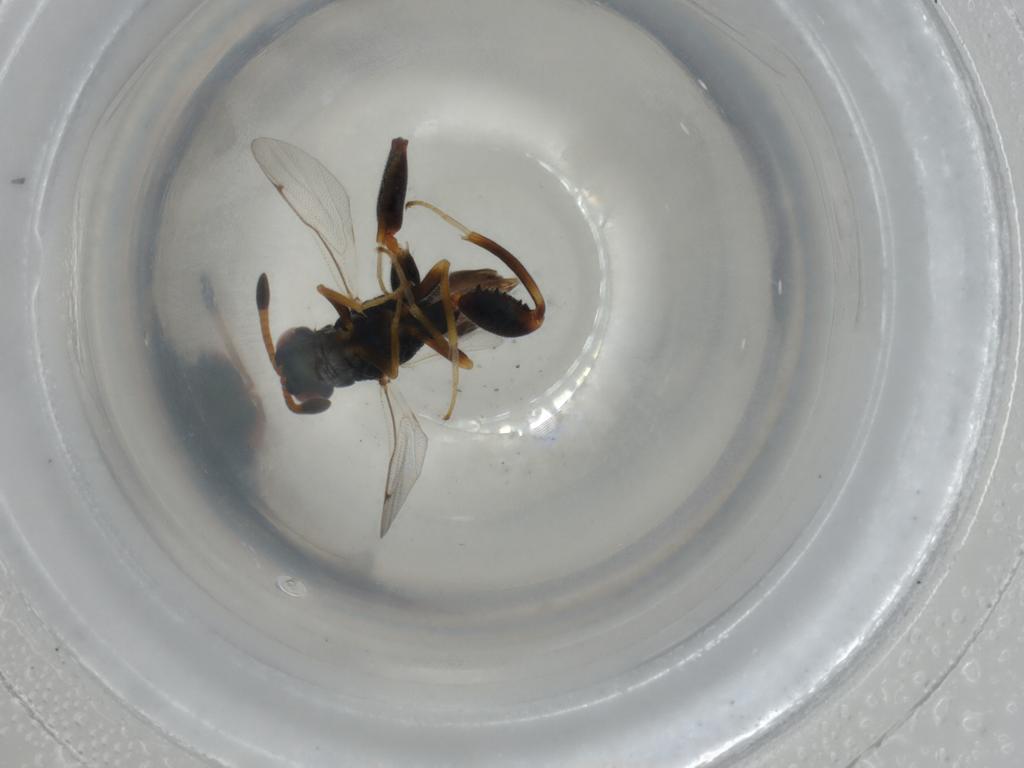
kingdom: Animalia
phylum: Arthropoda
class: Insecta
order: Hymenoptera
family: Torymidae
